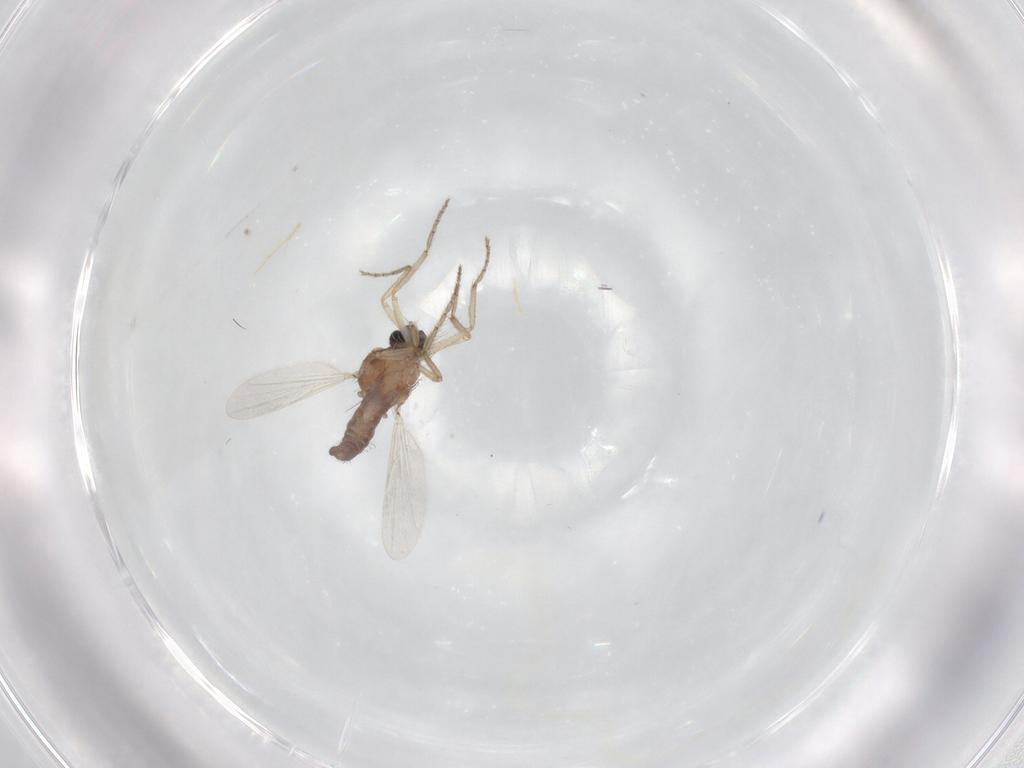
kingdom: Animalia
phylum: Arthropoda
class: Insecta
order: Diptera
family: Ceratopogonidae
